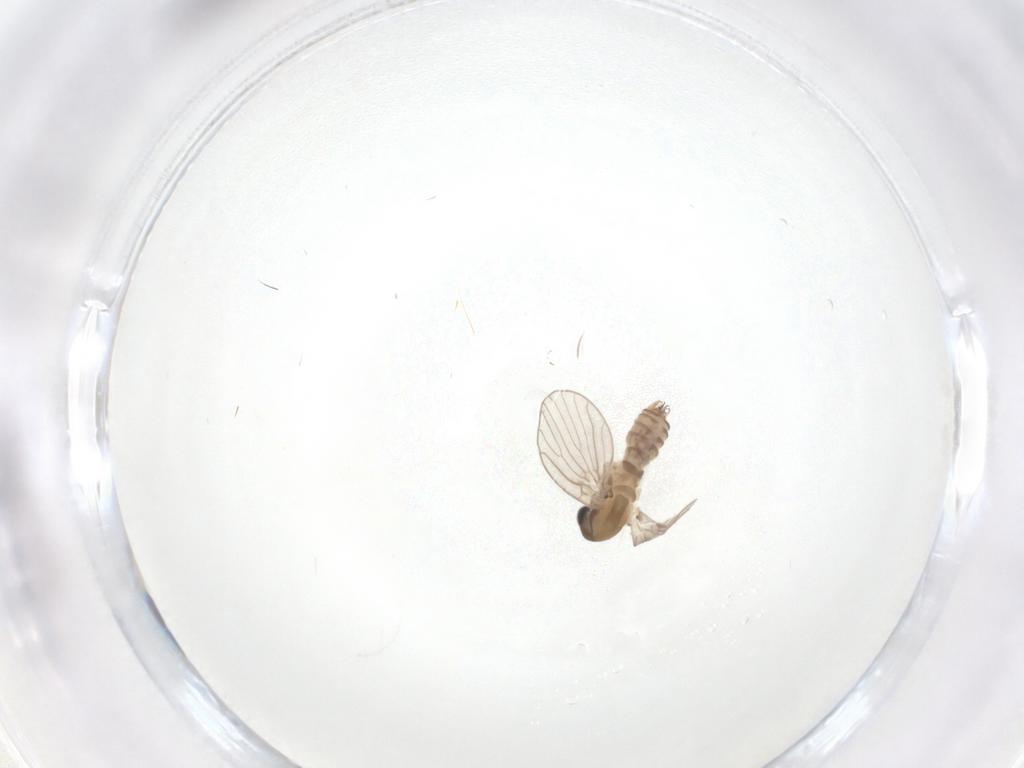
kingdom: Animalia
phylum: Arthropoda
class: Insecta
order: Diptera
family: Psychodidae
